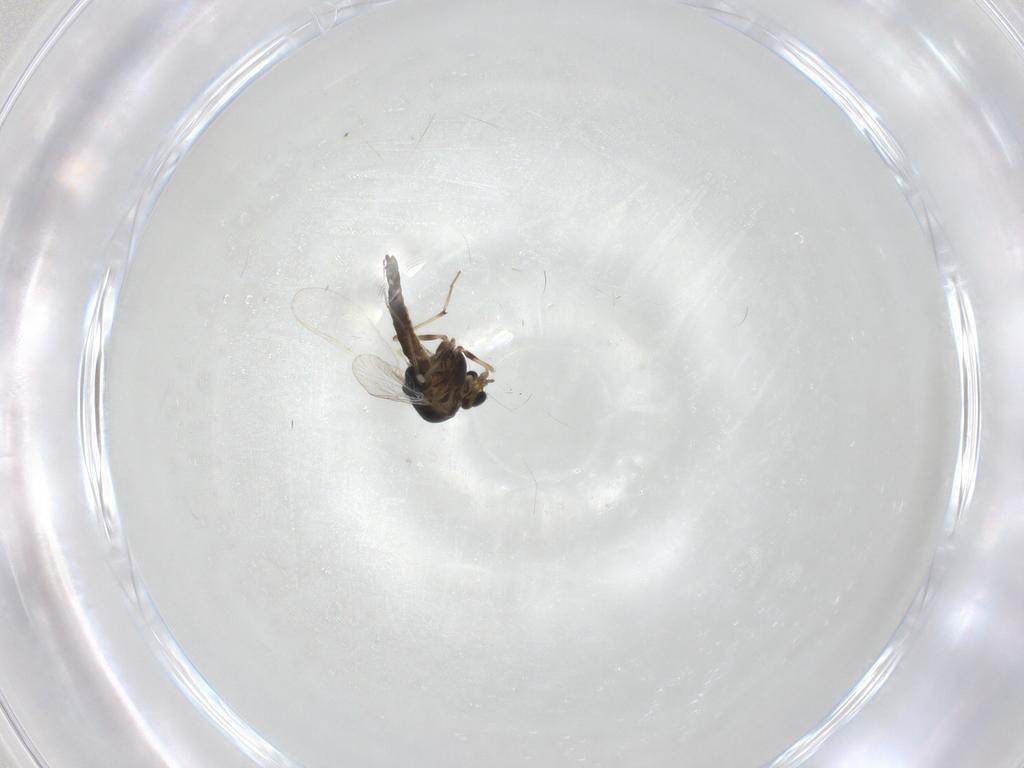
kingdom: Animalia
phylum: Arthropoda
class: Insecta
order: Diptera
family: Chironomidae
